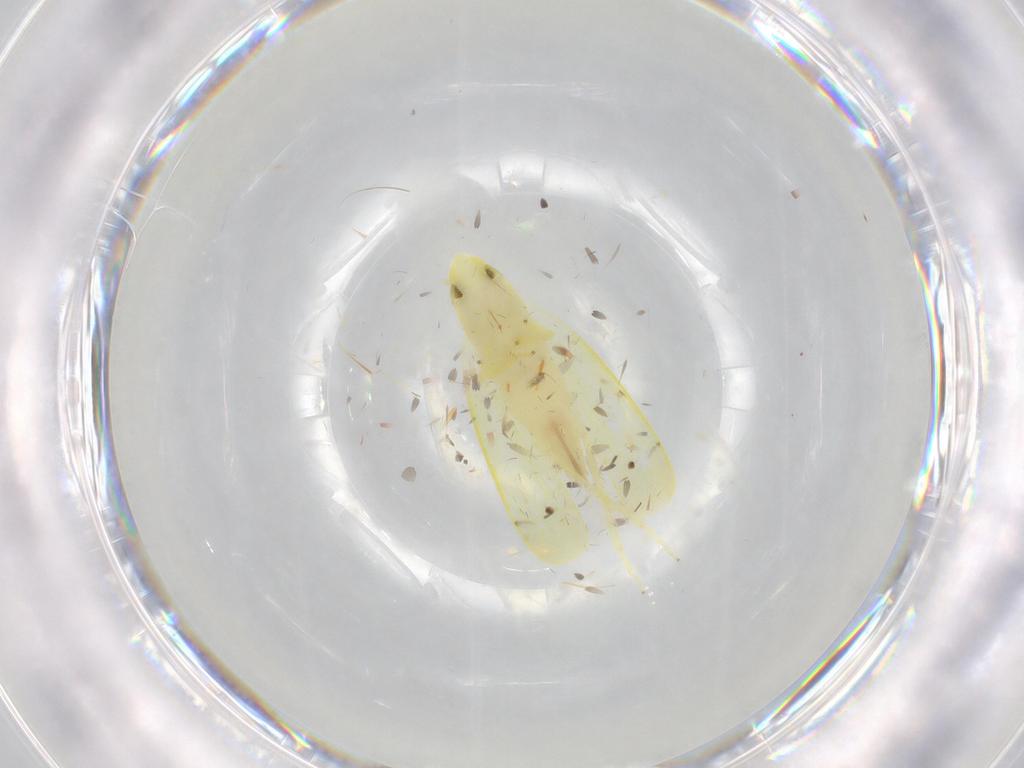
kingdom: Animalia
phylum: Arthropoda
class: Insecta
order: Hemiptera
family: Cicadellidae
